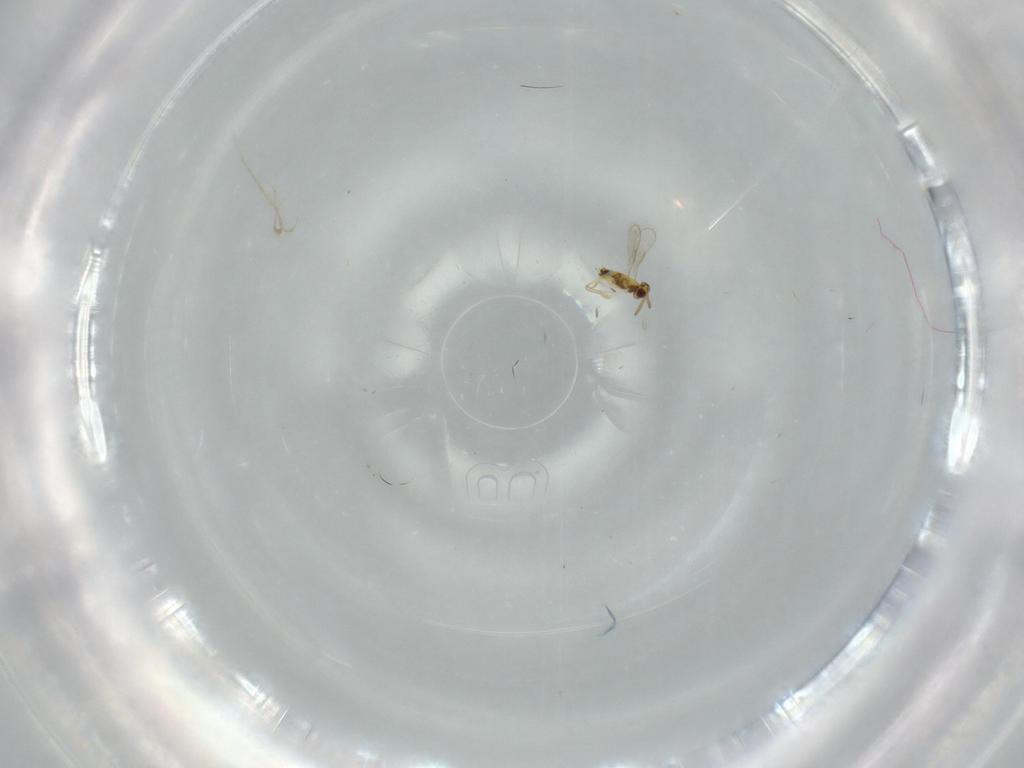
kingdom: Animalia
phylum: Arthropoda
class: Insecta
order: Hymenoptera
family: Aphelinidae
